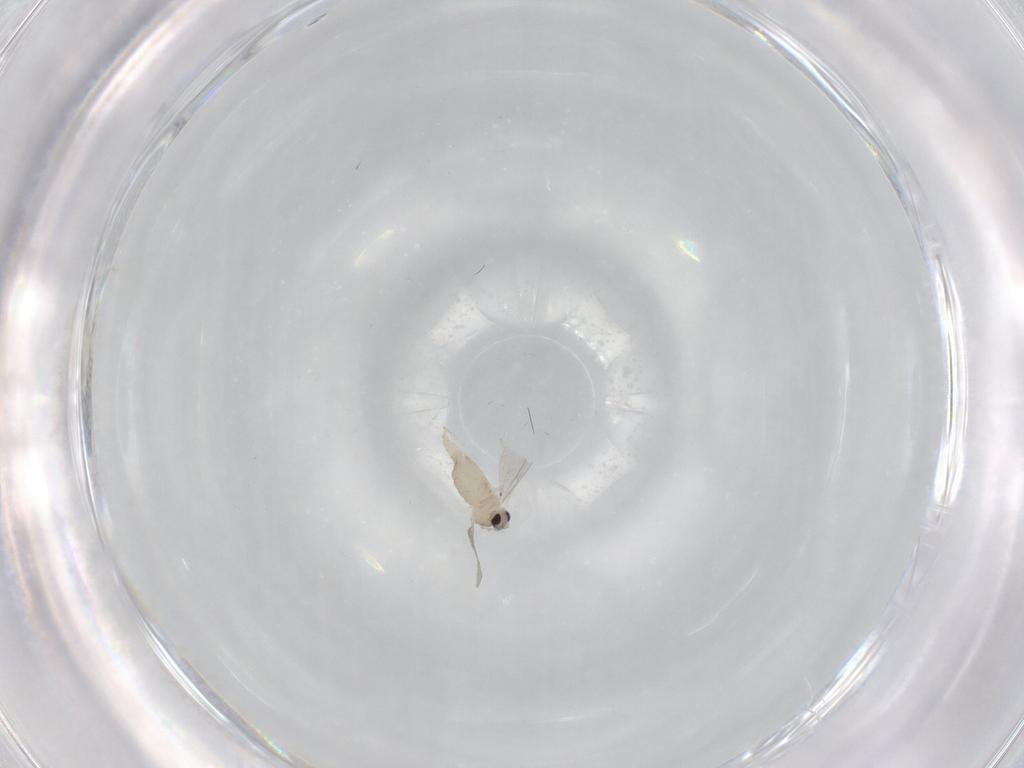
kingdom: Animalia
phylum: Arthropoda
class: Insecta
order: Diptera
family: Cecidomyiidae
